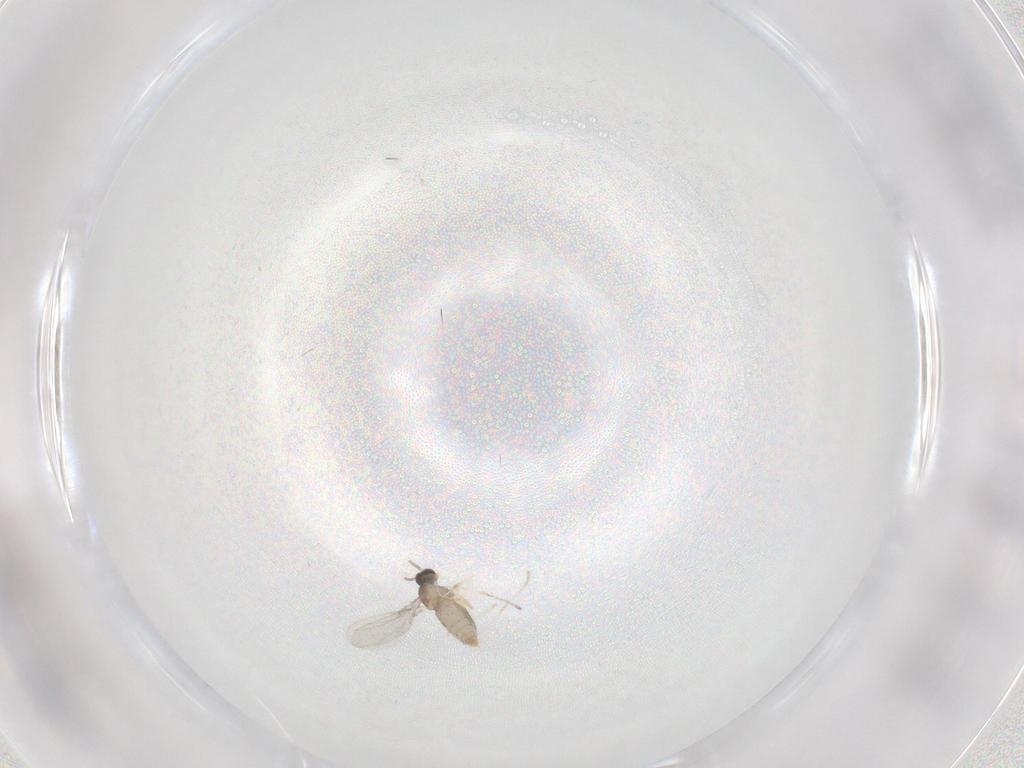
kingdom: Animalia
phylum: Arthropoda
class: Insecta
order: Diptera
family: Cecidomyiidae
